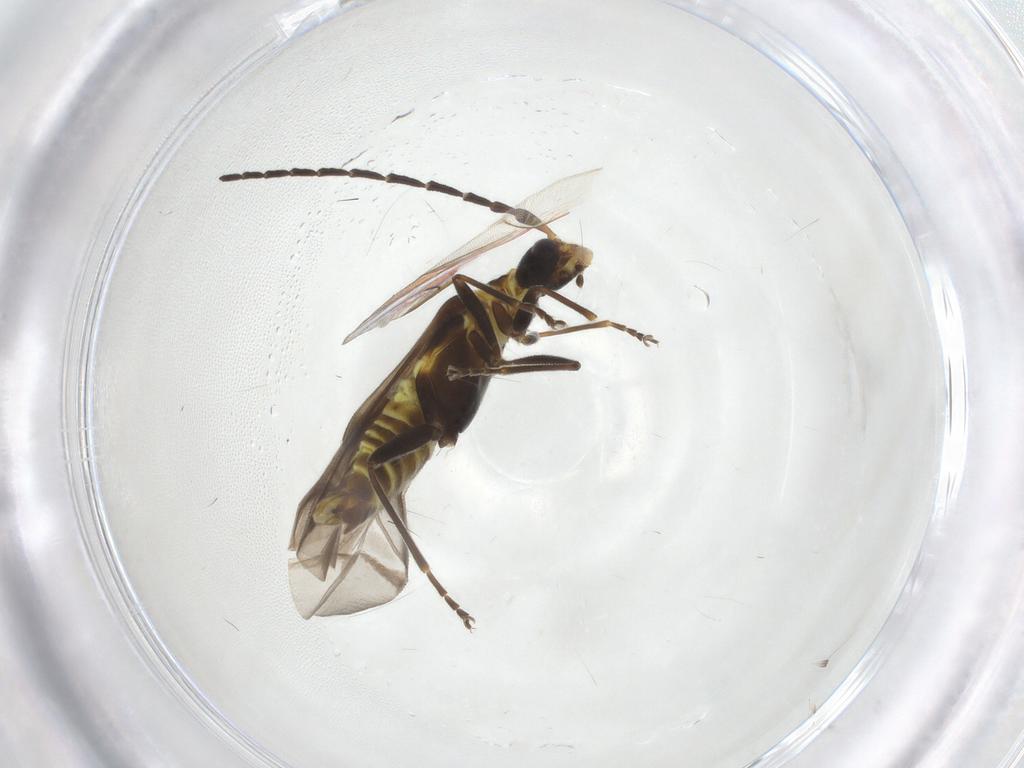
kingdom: Animalia
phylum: Arthropoda
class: Insecta
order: Coleoptera
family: Cantharidae
